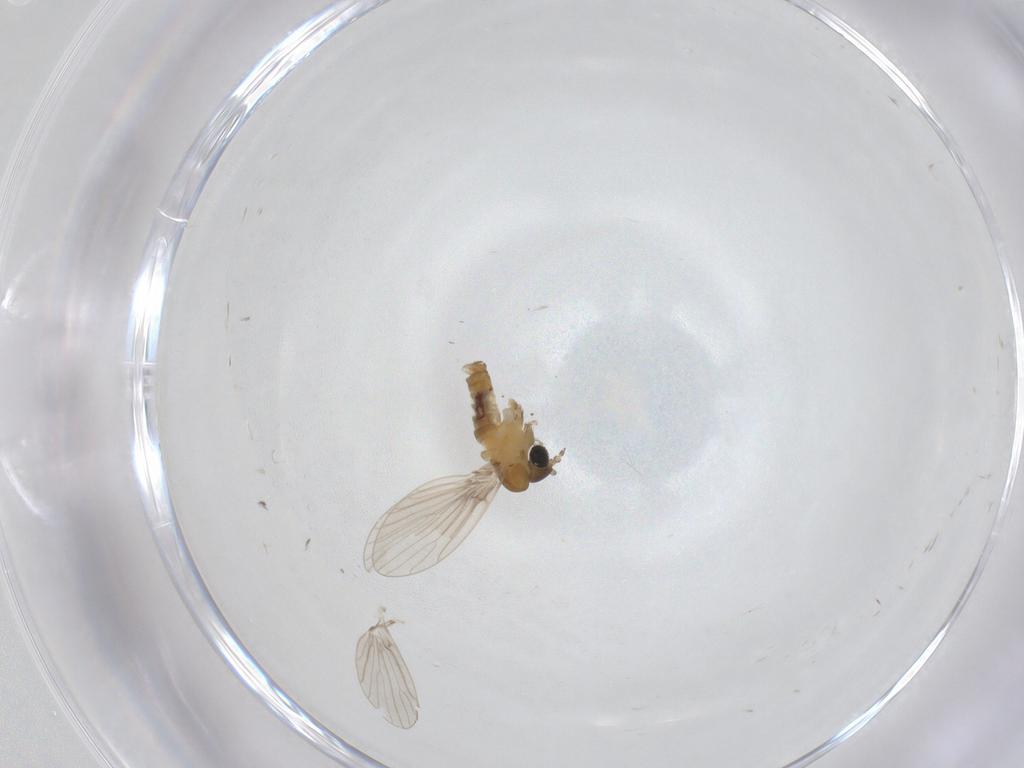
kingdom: Animalia
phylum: Arthropoda
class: Insecta
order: Diptera
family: Psychodidae
